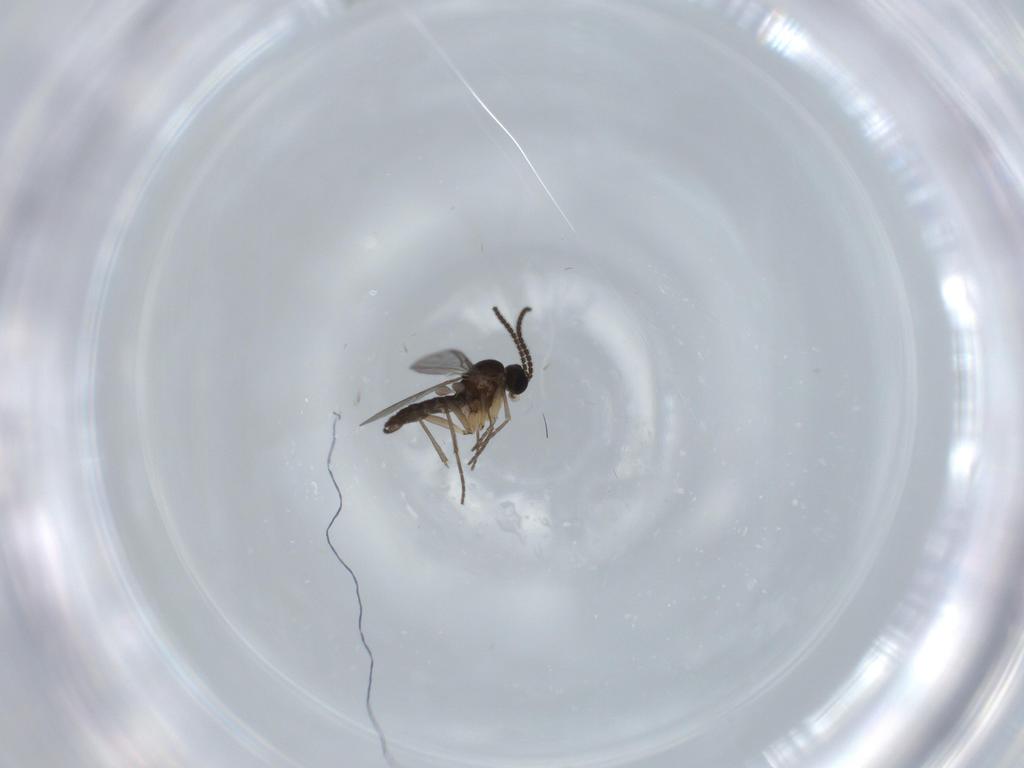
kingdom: Animalia
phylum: Arthropoda
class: Insecta
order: Diptera
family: Sciaridae
